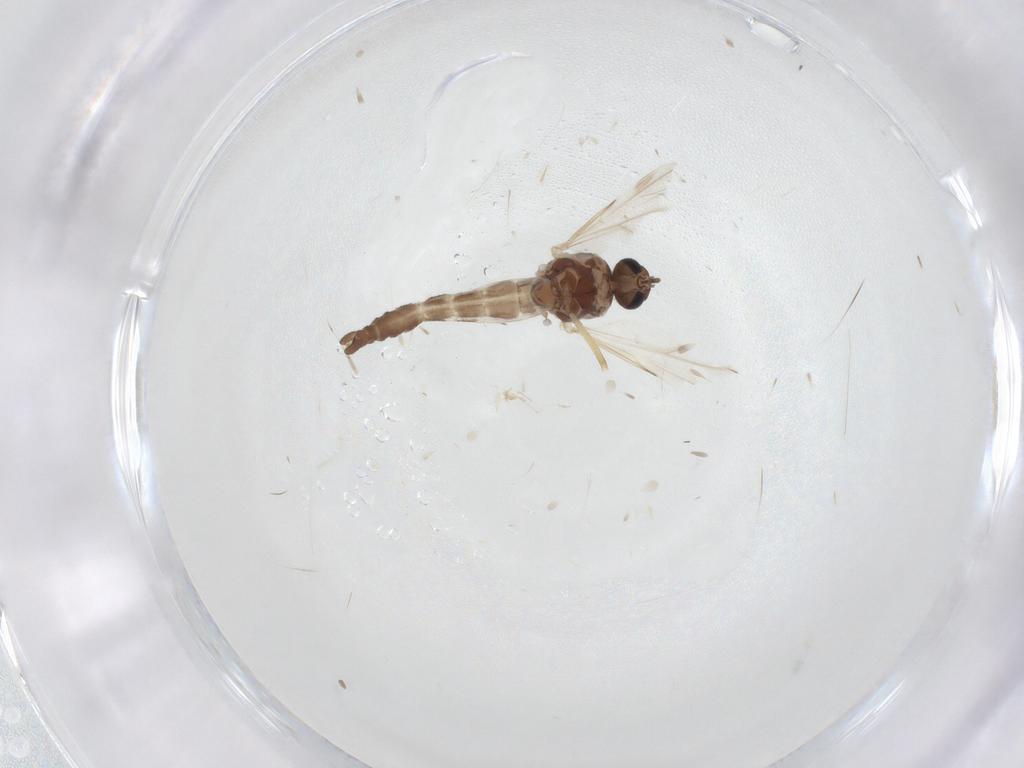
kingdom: Animalia
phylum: Arthropoda
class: Insecta
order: Diptera
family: Ceratopogonidae
